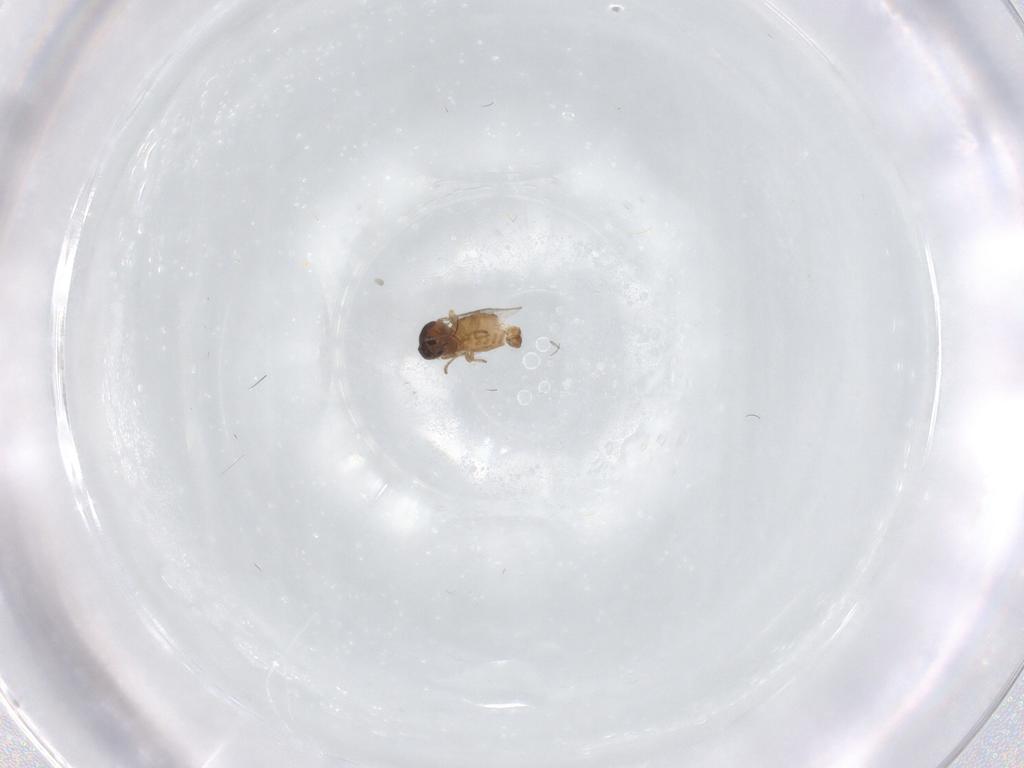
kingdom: Animalia
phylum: Arthropoda
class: Insecta
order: Diptera
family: Ceratopogonidae
